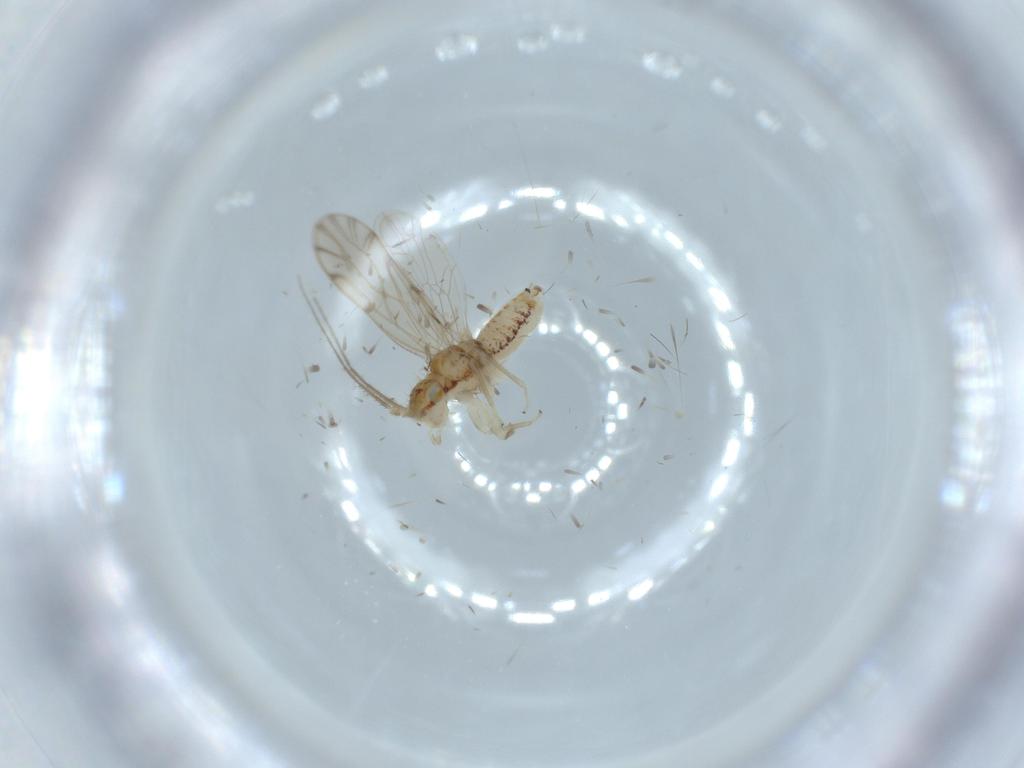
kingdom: Animalia
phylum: Arthropoda
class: Insecta
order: Psocodea
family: Ectopsocidae
